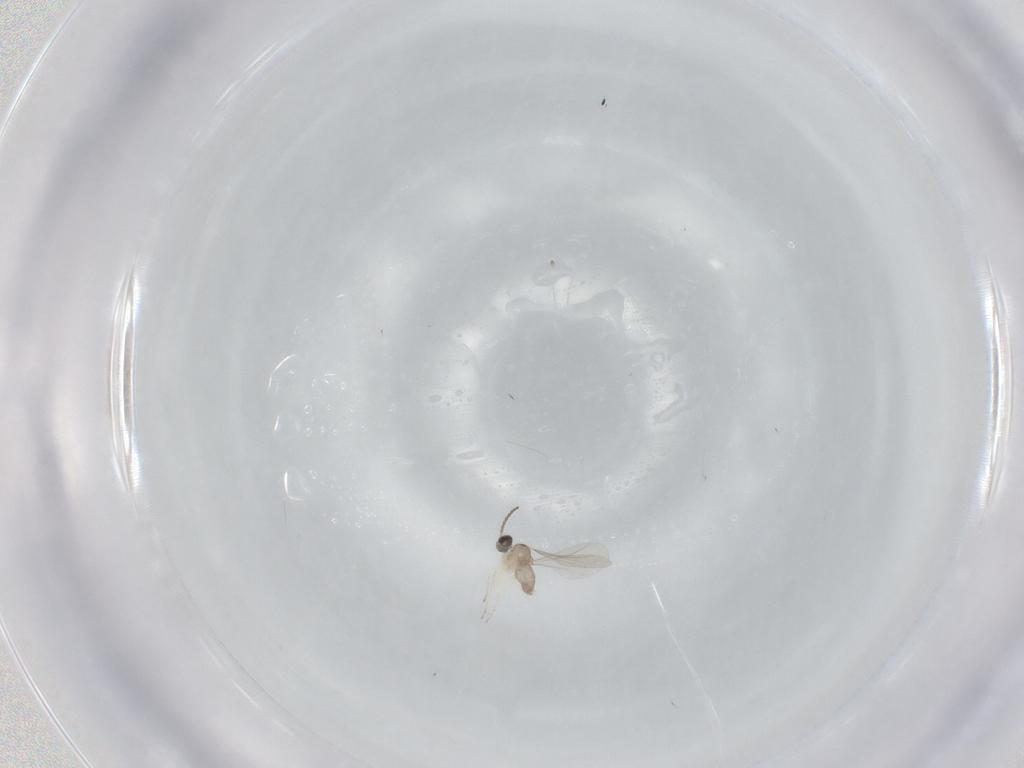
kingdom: Animalia
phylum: Arthropoda
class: Insecta
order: Diptera
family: Cecidomyiidae
